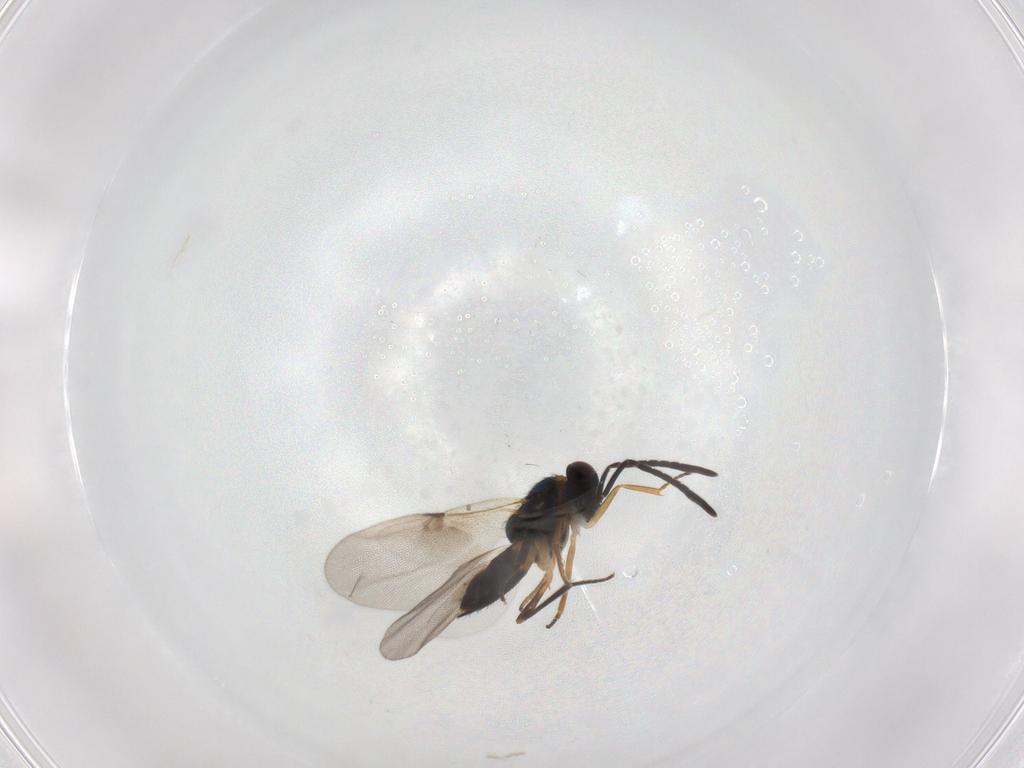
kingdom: Animalia
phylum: Arthropoda
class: Insecta
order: Hymenoptera
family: Encyrtidae
